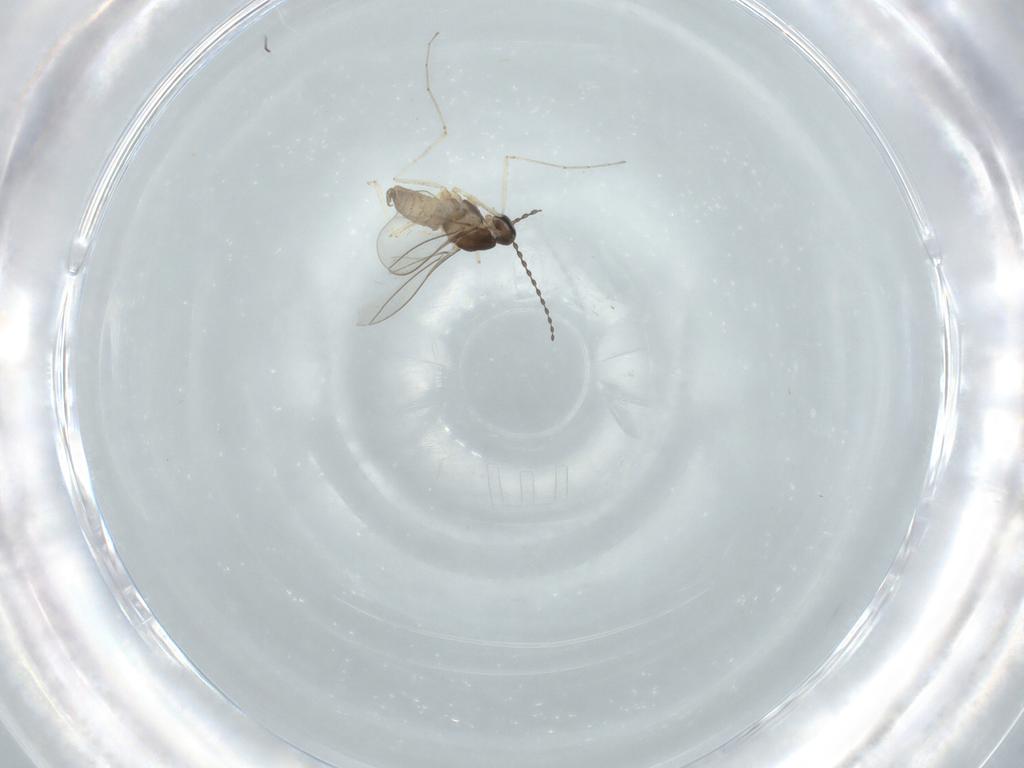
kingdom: Animalia
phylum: Arthropoda
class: Insecta
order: Diptera
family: Cecidomyiidae
